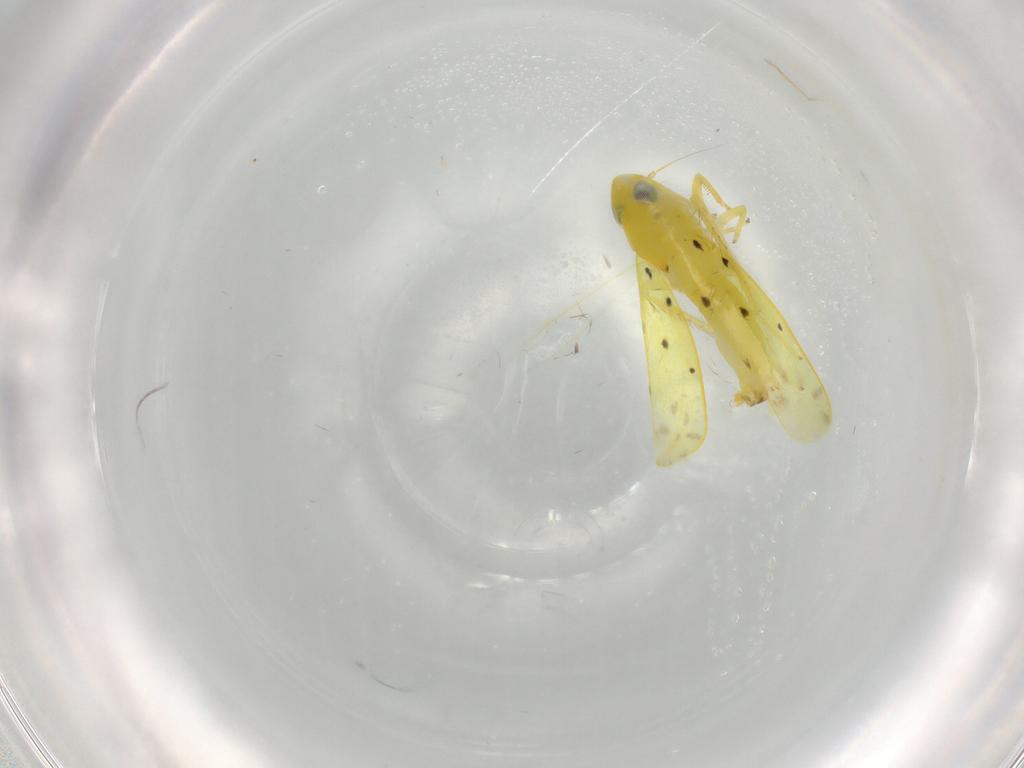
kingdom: Animalia
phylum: Arthropoda
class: Insecta
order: Hemiptera
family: Cicadellidae
